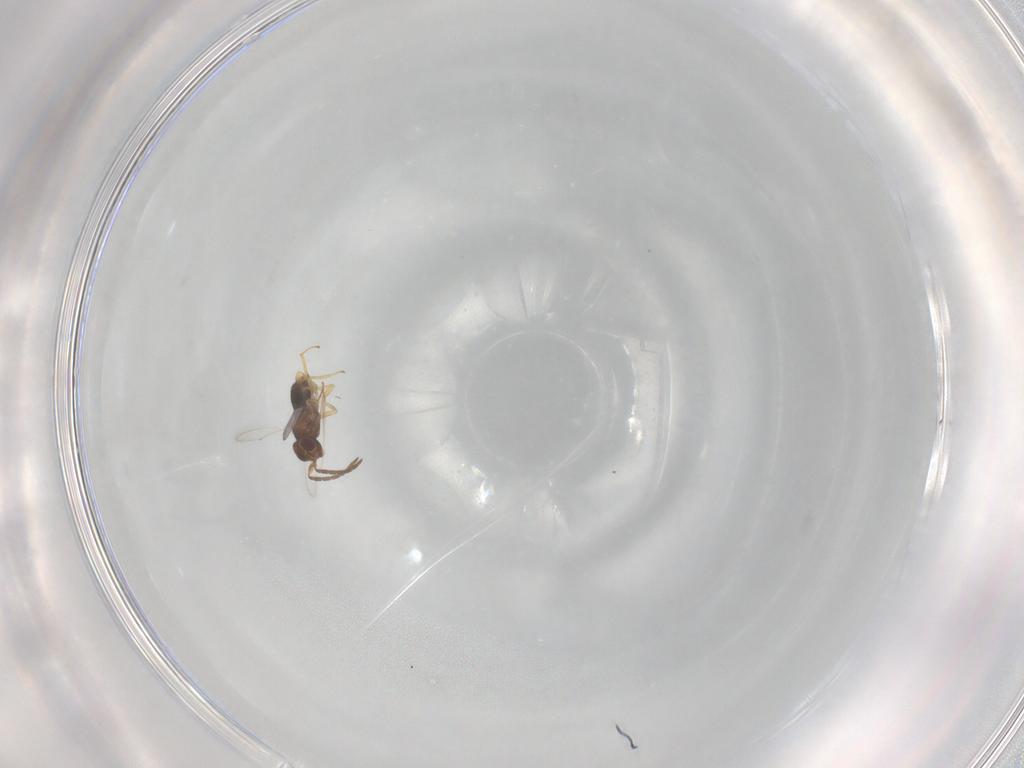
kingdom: Animalia
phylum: Arthropoda
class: Insecta
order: Hymenoptera
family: Aphelinidae
